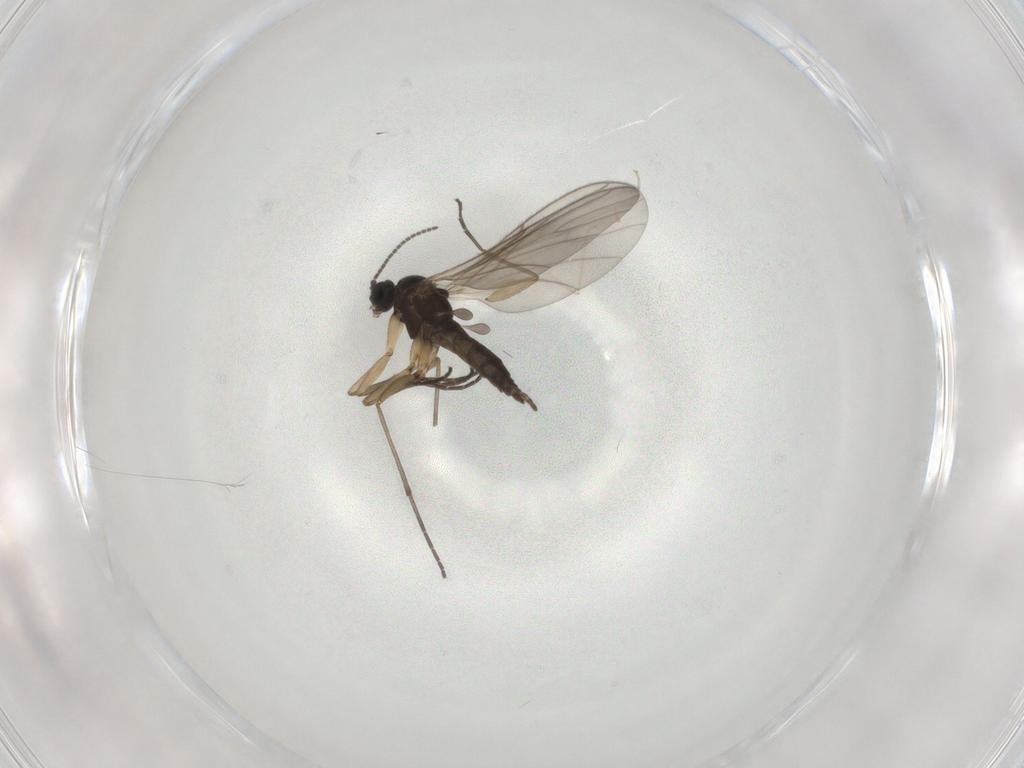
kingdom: Animalia
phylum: Arthropoda
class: Insecta
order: Diptera
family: Sciaridae
